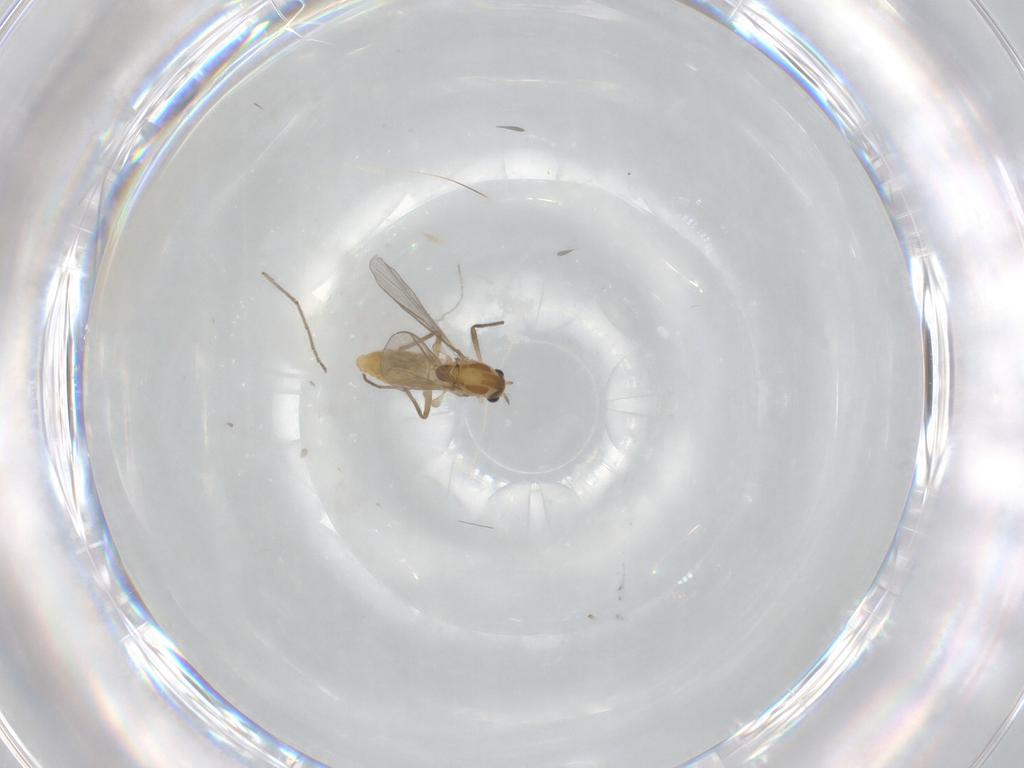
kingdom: Animalia
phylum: Arthropoda
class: Insecta
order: Diptera
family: Chironomidae
